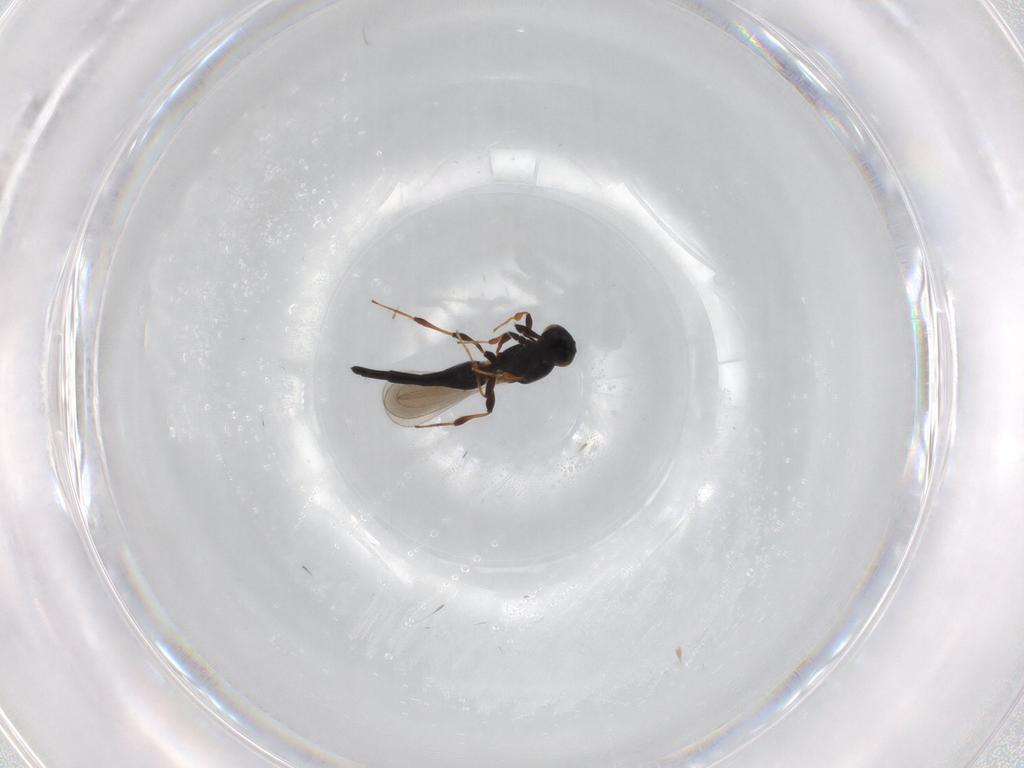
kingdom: Animalia
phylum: Arthropoda
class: Insecta
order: Hymenoptera
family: Platygastridae
